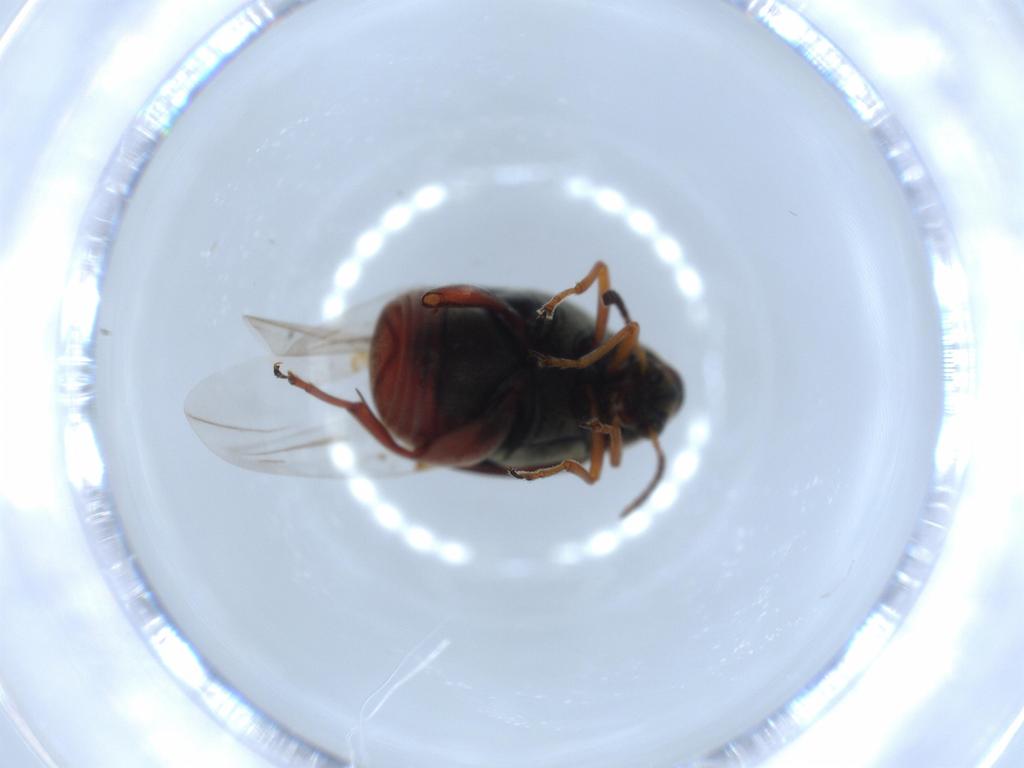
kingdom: Animalia
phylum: Arthropoda
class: Insecta
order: Coleoptera
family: Chrysomelidae
